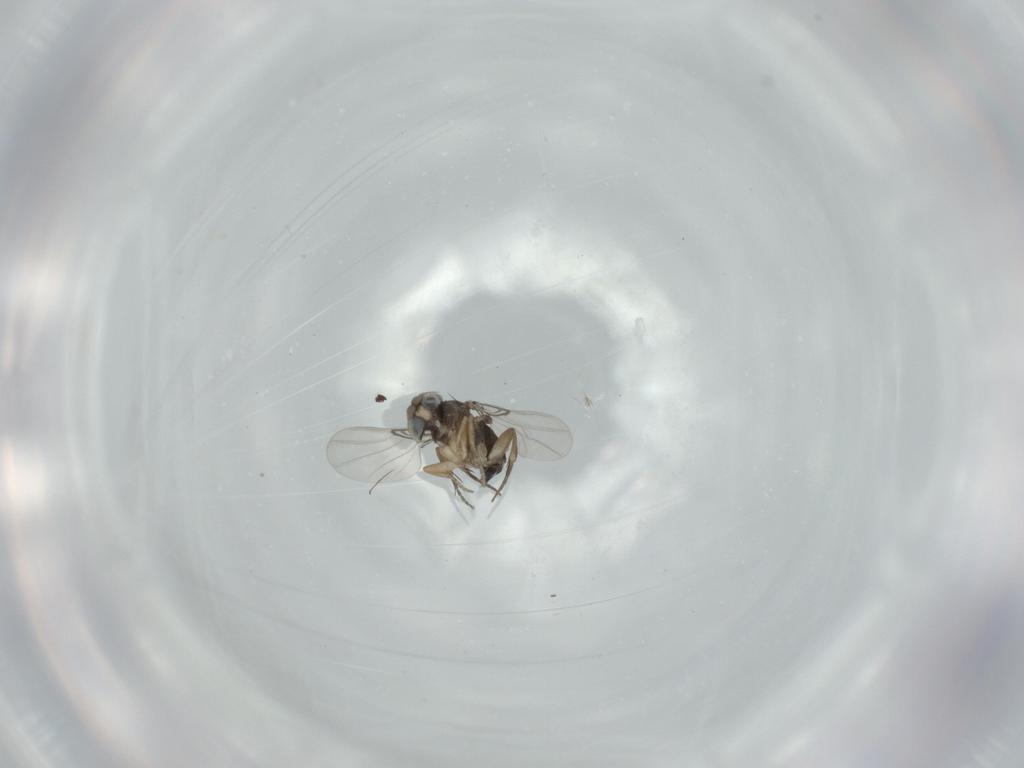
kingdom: Animalia
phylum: Arthropoda
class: Insecta
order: Diptera
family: Phoridae
